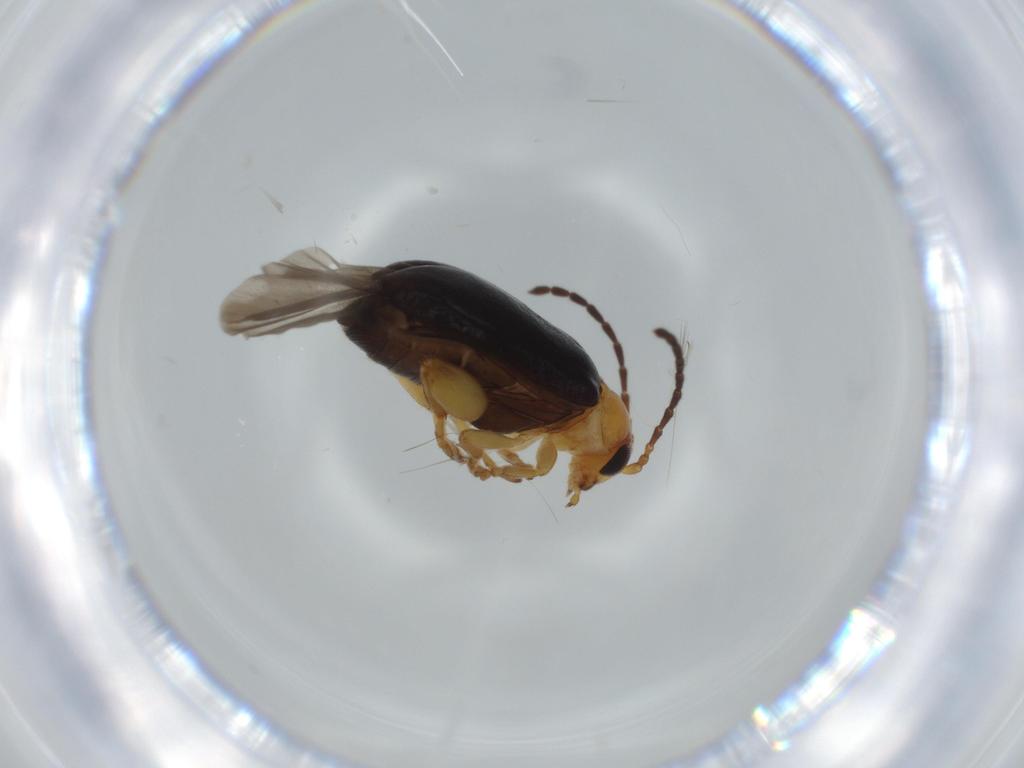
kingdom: Animalia
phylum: Arthropoda
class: Insecta
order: Coleoptera
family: Chrysomelidae
